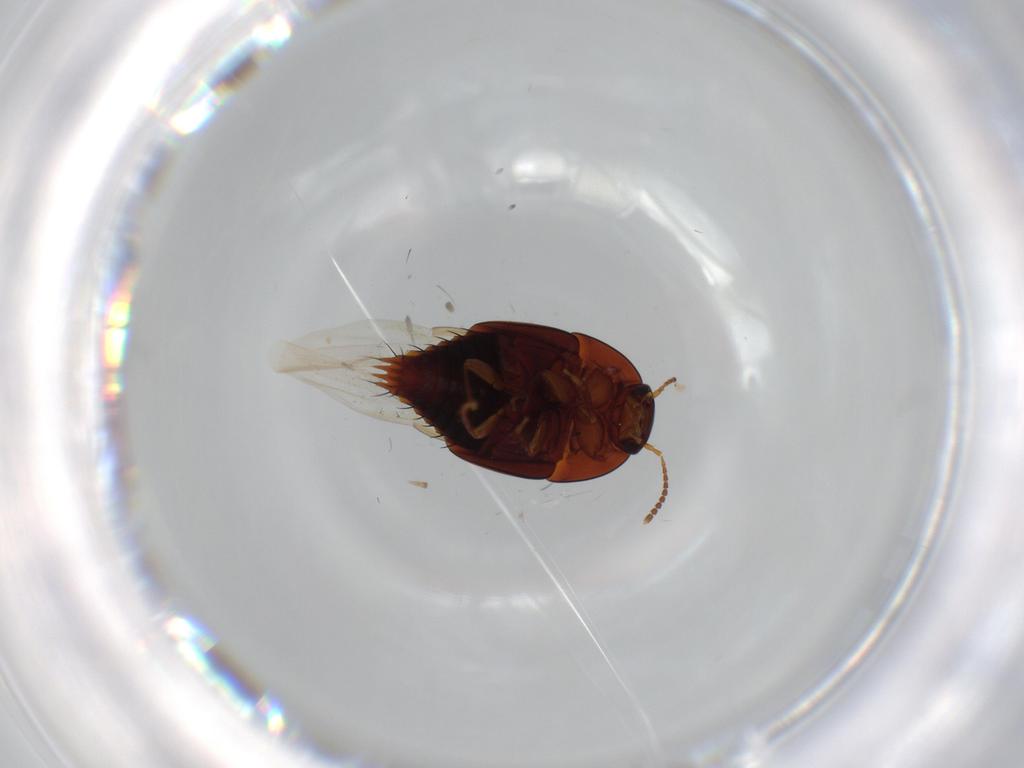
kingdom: Animalia
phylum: Arthropoda
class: Insecta
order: Coleoptera
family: Staphylinidae
